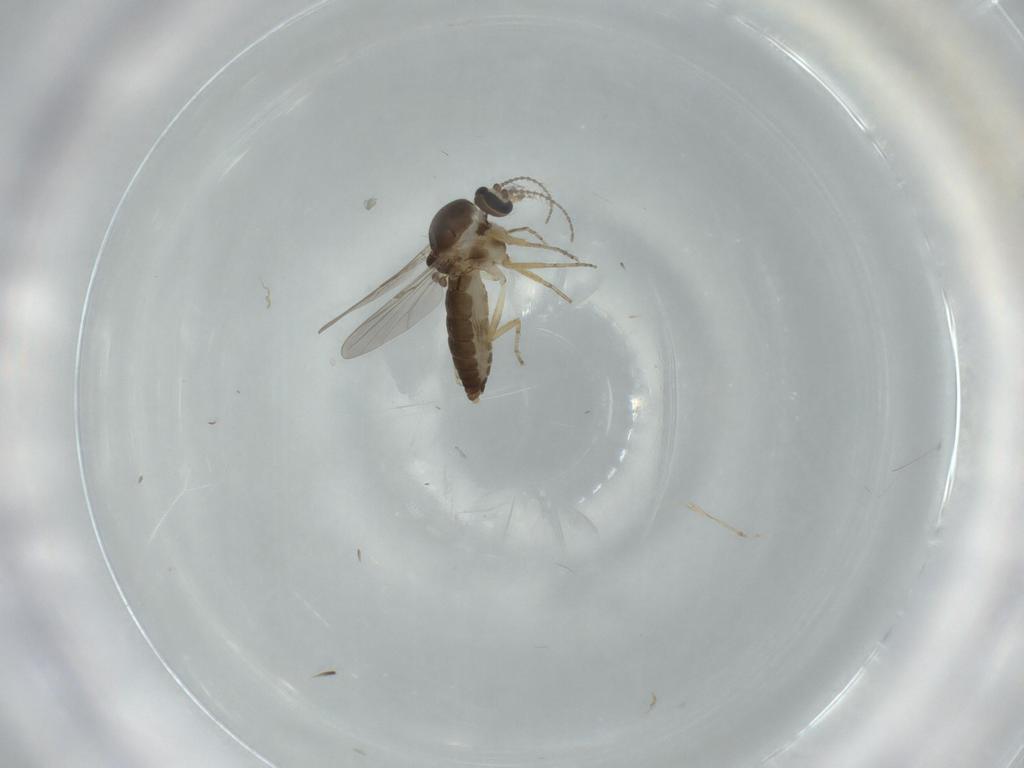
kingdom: Animalia
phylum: Arthropoda
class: Insecta
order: Diptera
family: Ceratopogonidae
